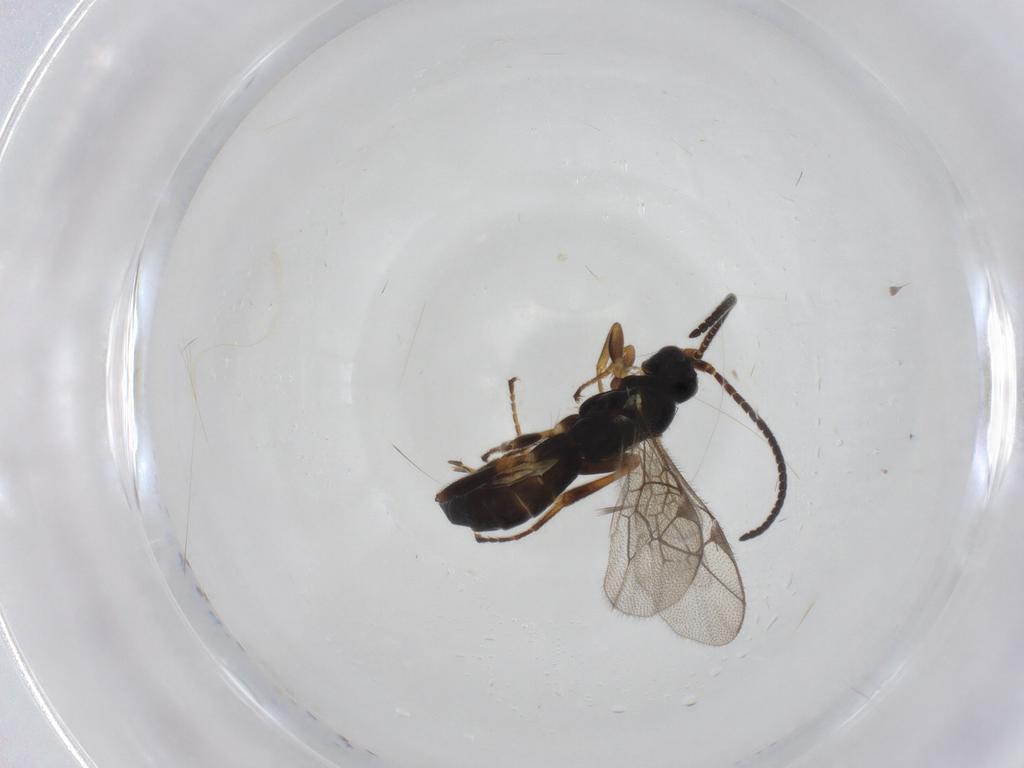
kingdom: Animalia
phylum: Arthropoda
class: Insecta
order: Hymenoptera
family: Ichneumonidae
